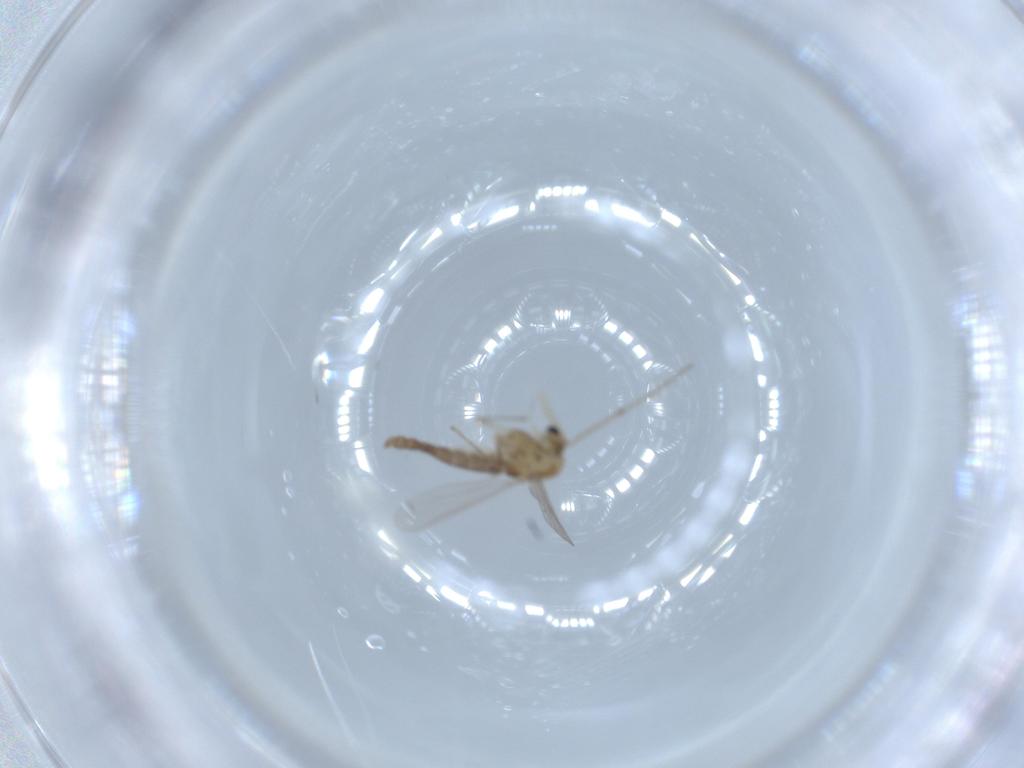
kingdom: Animalia
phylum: Arthropoda
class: Insecta
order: Diptera
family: Chironomidae
